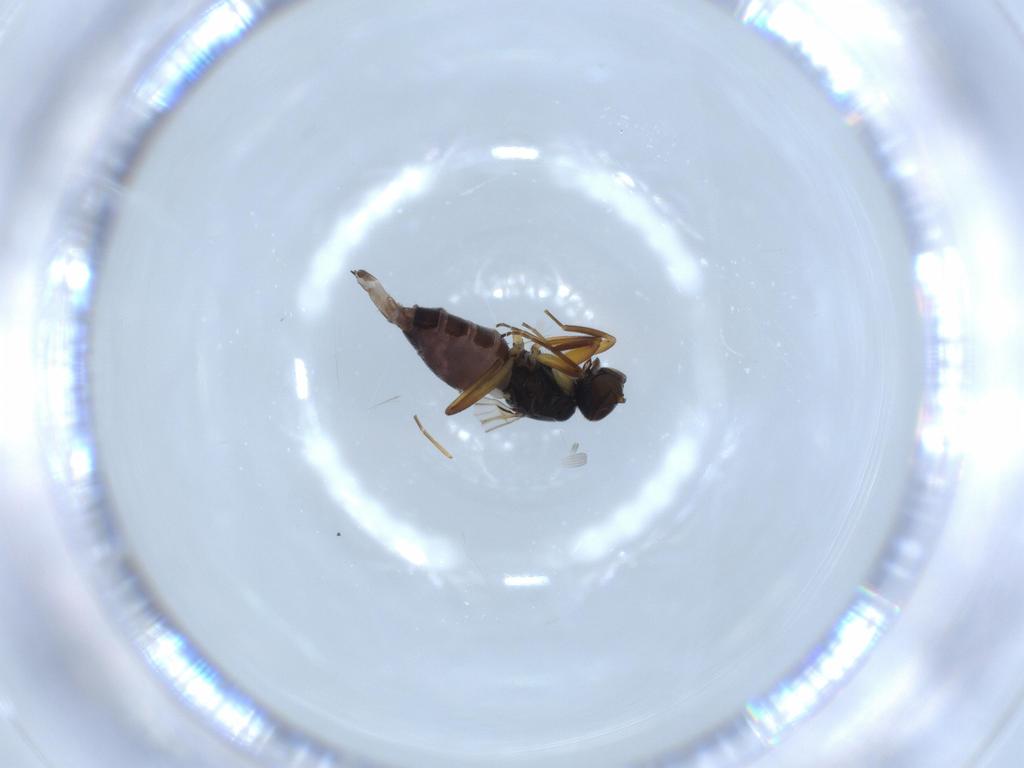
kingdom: Animalia
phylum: Arthropoda
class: Insecta
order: Diptera
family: Hybotidae
